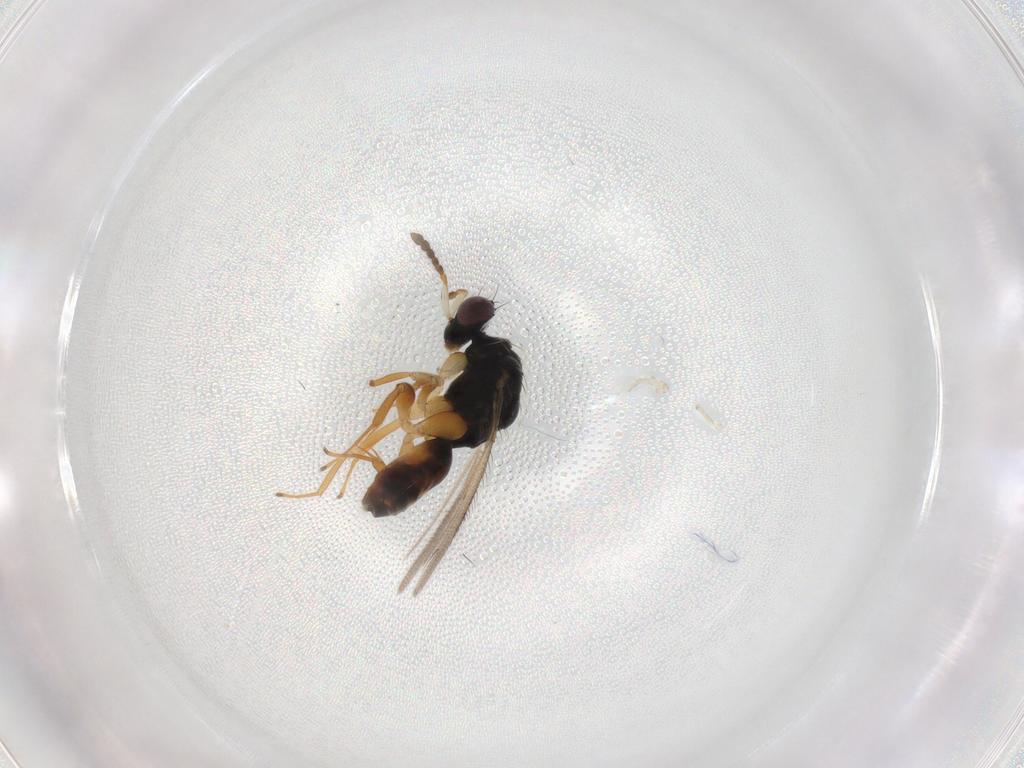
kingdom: Animalia
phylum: Arthropoda
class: Insecta
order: Hymenoptera
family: Eulophidae
